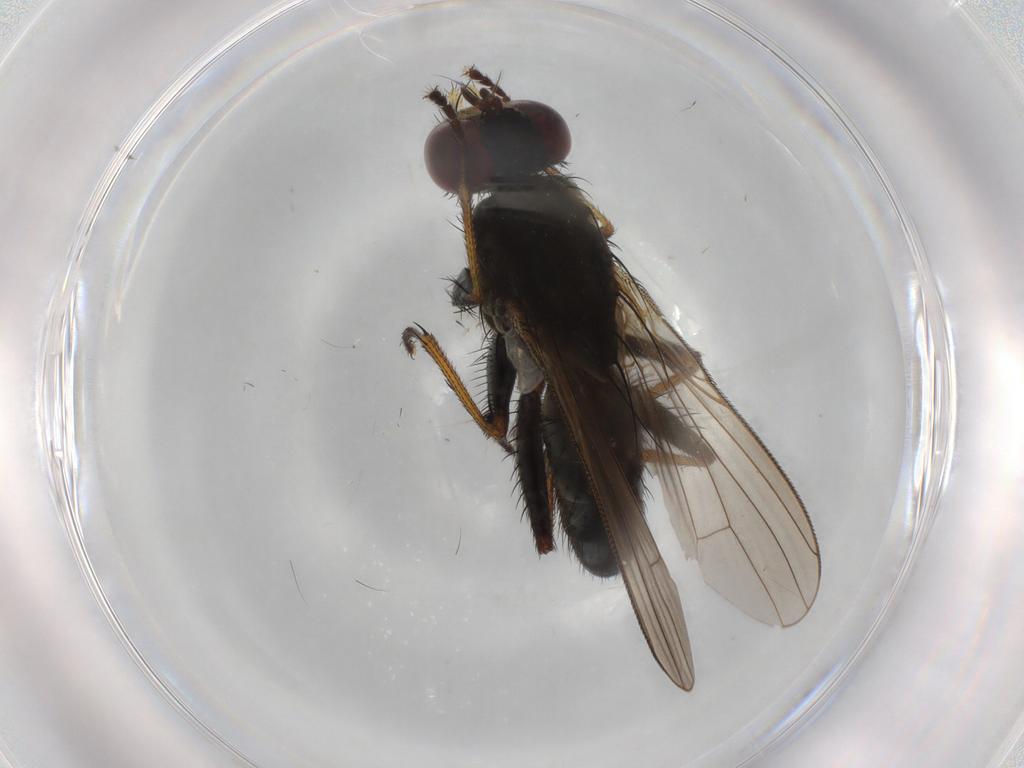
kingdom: Animalia
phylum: Arthropoda
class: Insecta
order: Diptera
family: Muscidae
